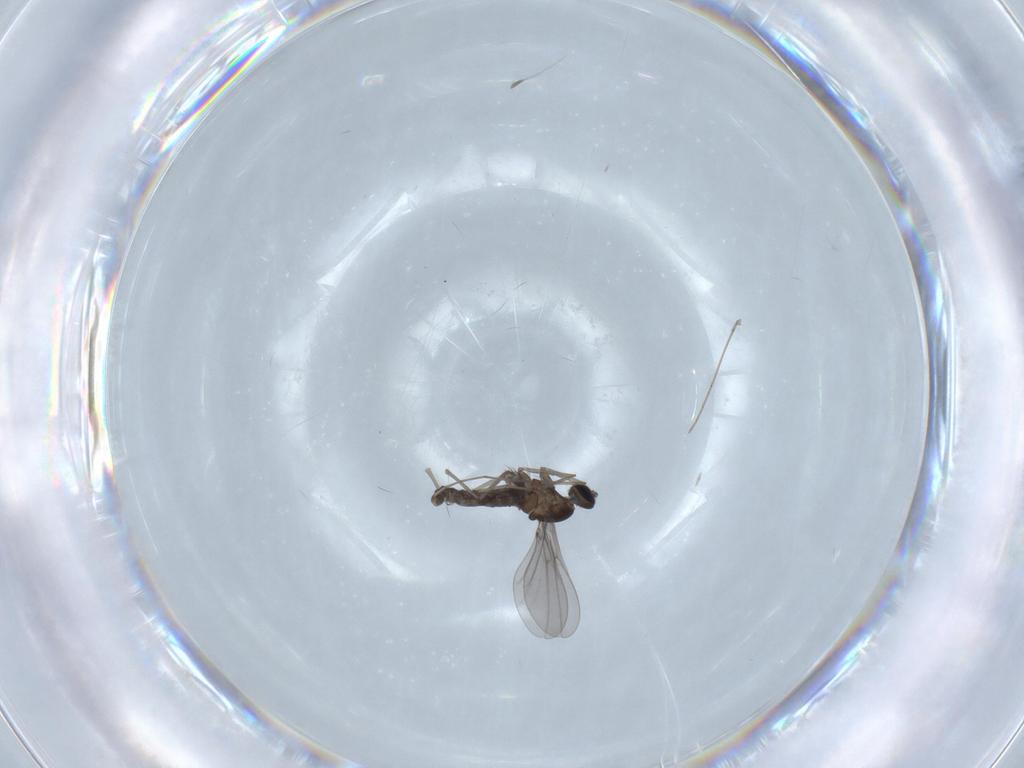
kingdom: Animalia
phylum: Arthropoda
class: Insecta
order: Diptera
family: Cecidomyiidae
